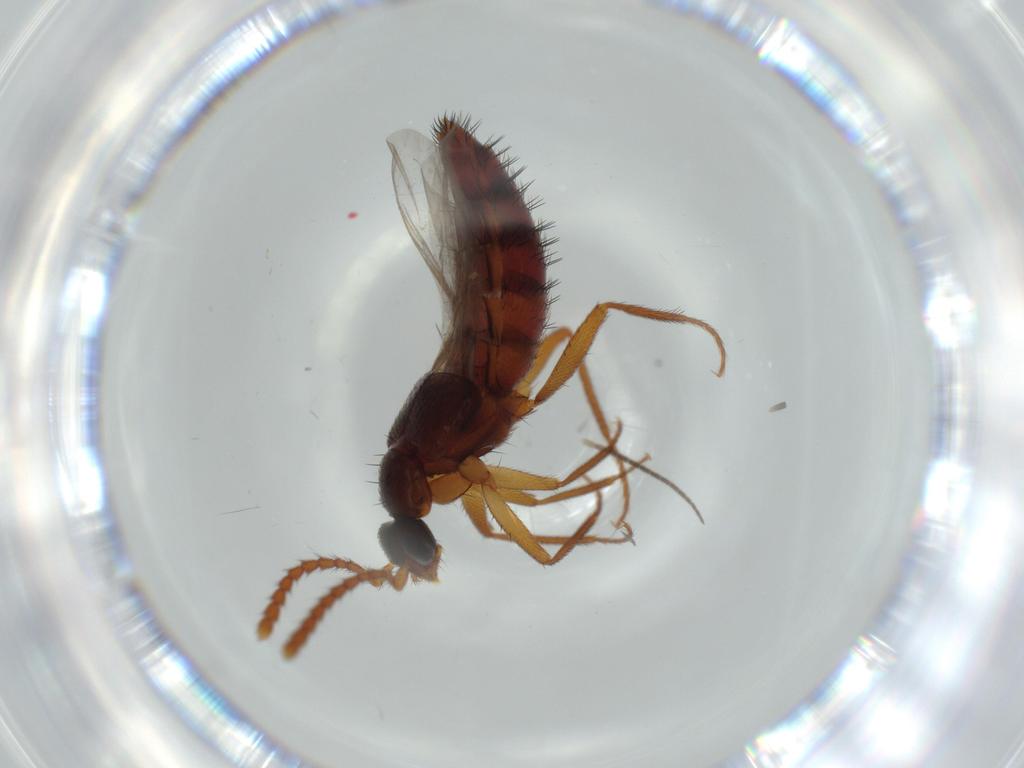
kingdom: Animalia
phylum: Arthropoda
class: Insecta
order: Coleoptera
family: Staphylinidae
